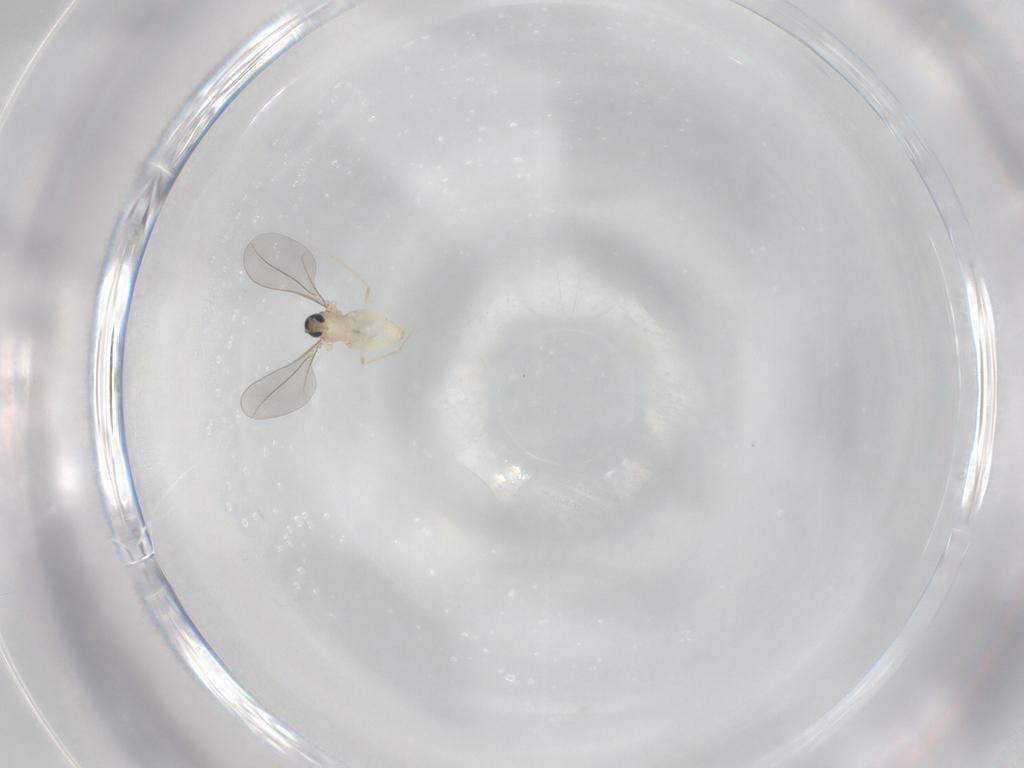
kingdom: Animalia
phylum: Arthropoda
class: Insecta
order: Diptera
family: Cecidomyiidae
